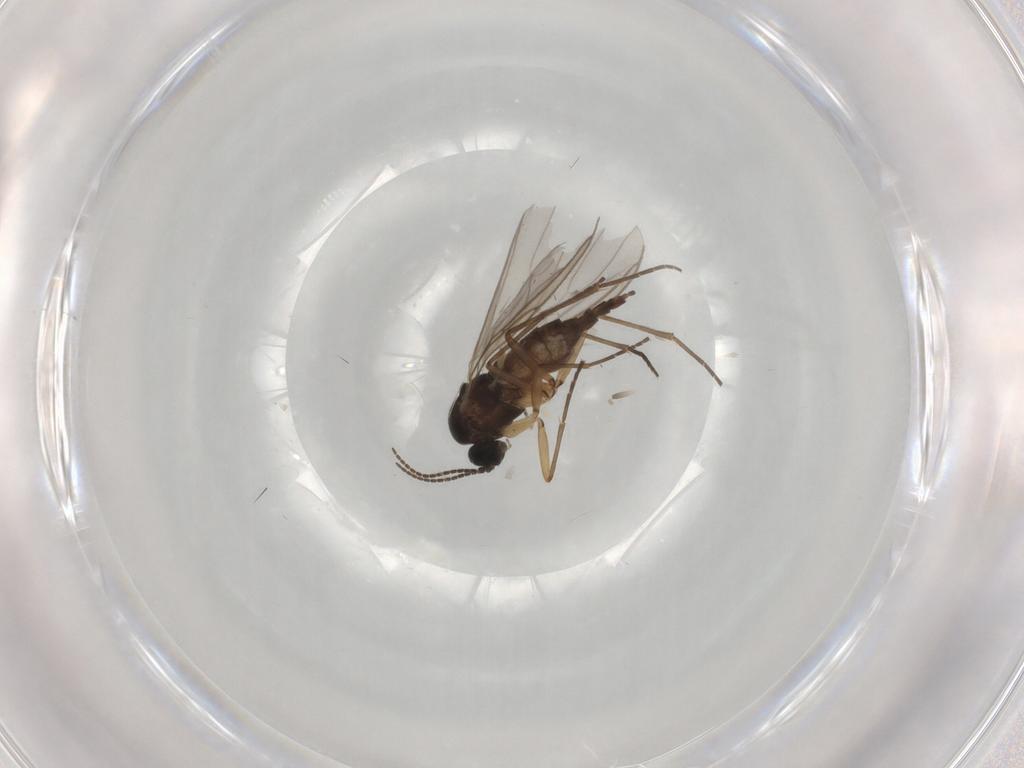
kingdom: Animalia
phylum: Arthropoda
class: Insecta
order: Diptera
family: Sciaridae
